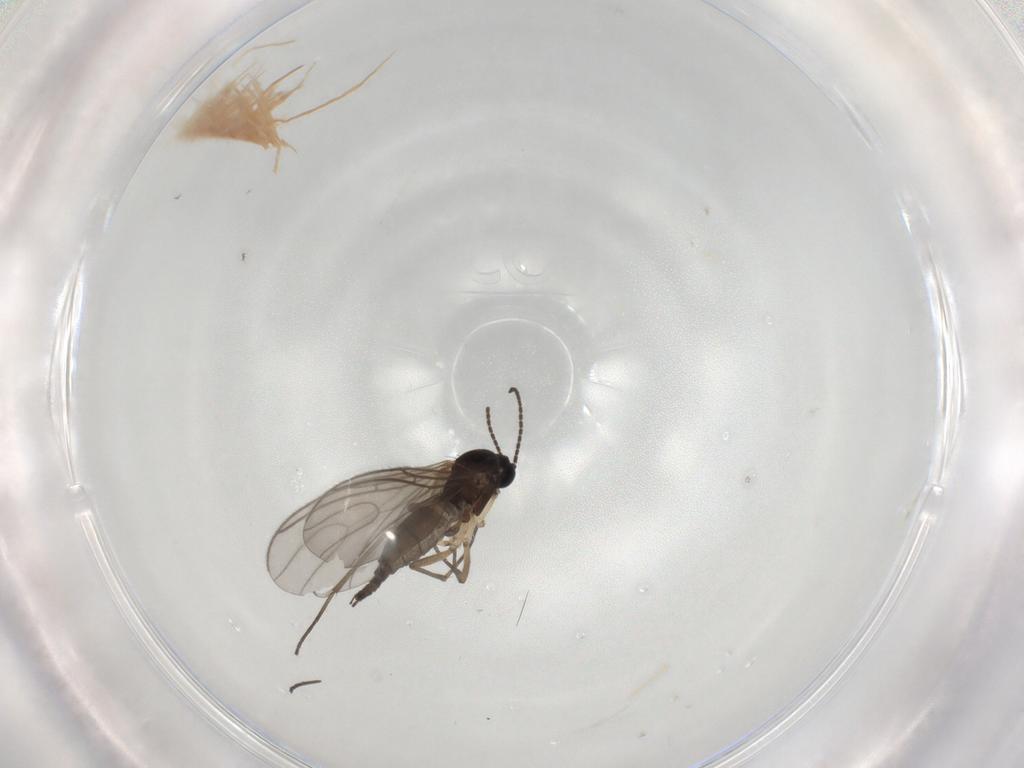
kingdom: Animalia
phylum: Arthropoda
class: Insecta
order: Diptera
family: Sciaridae
